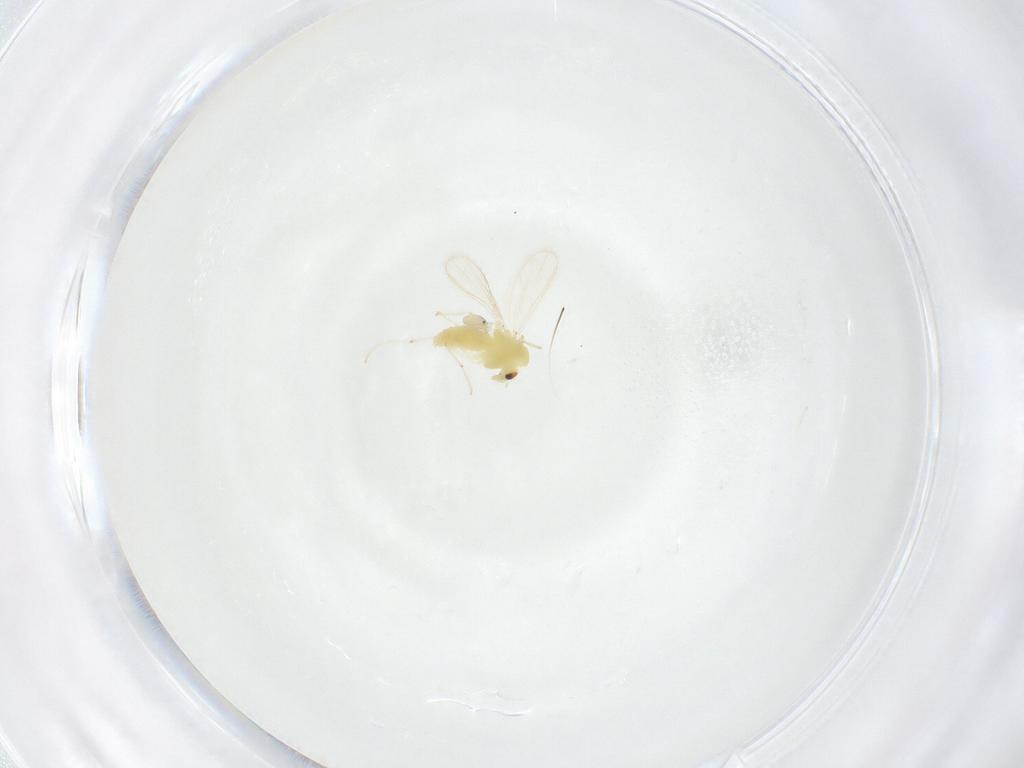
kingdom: Animalia
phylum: Arthropoda
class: Insecta
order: Diptera
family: Chironomidae
